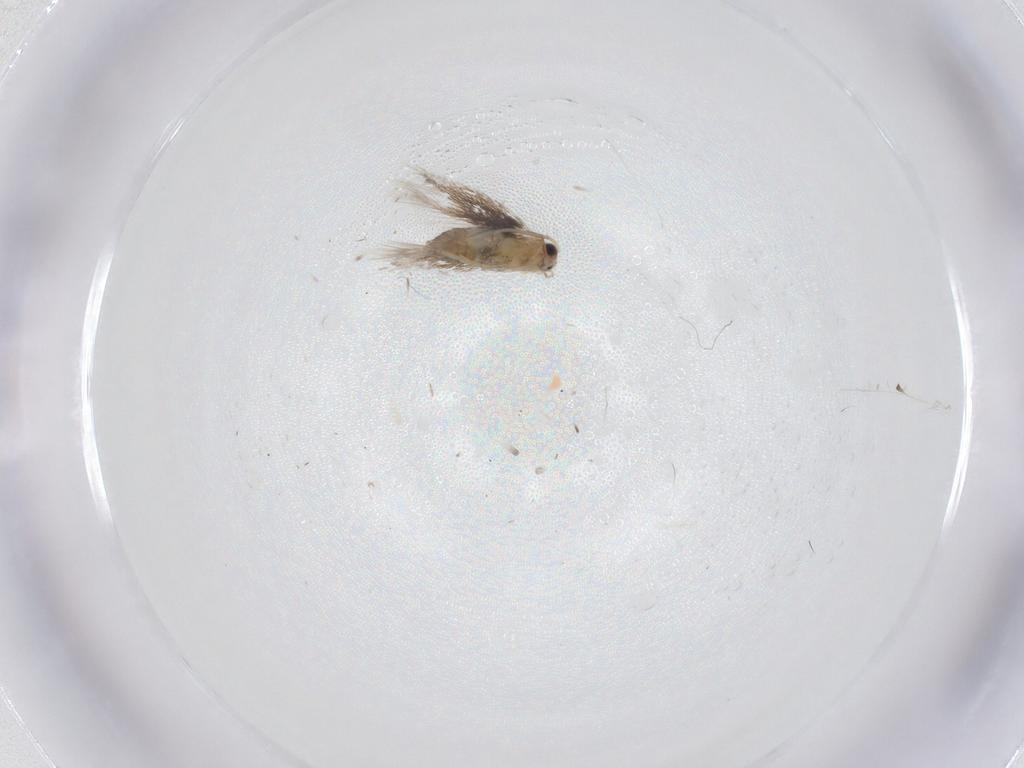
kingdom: Animalia
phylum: Arthropoda
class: Insecta
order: Lepidoptera
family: Nepticulidae
